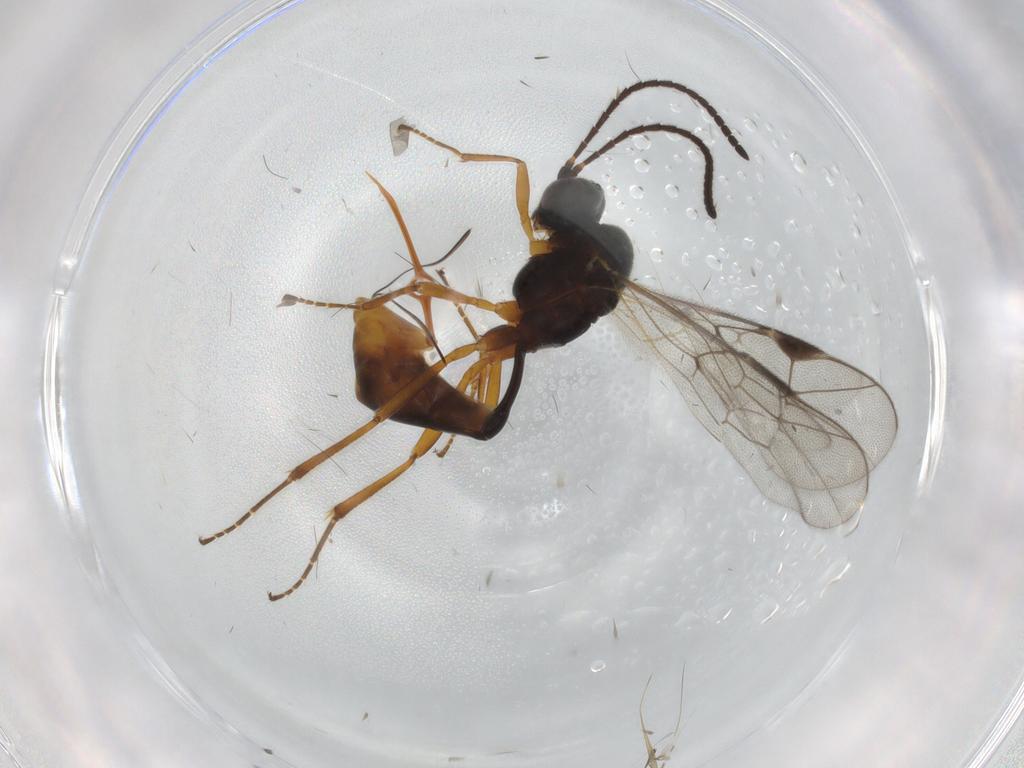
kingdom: Animalia
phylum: Arthropoda
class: Insecta
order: Hymenoptera
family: Ichneumonidae
